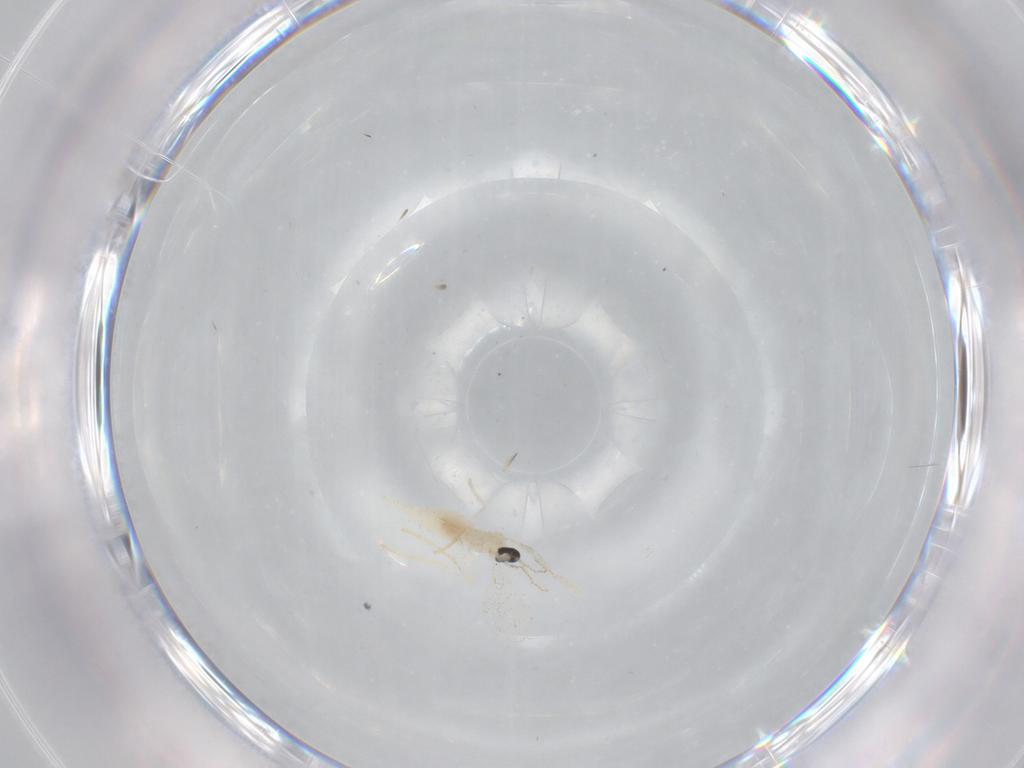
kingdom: Animalia
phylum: Arthropoda
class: Insecta
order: Diptera
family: Cecidomyiidae
